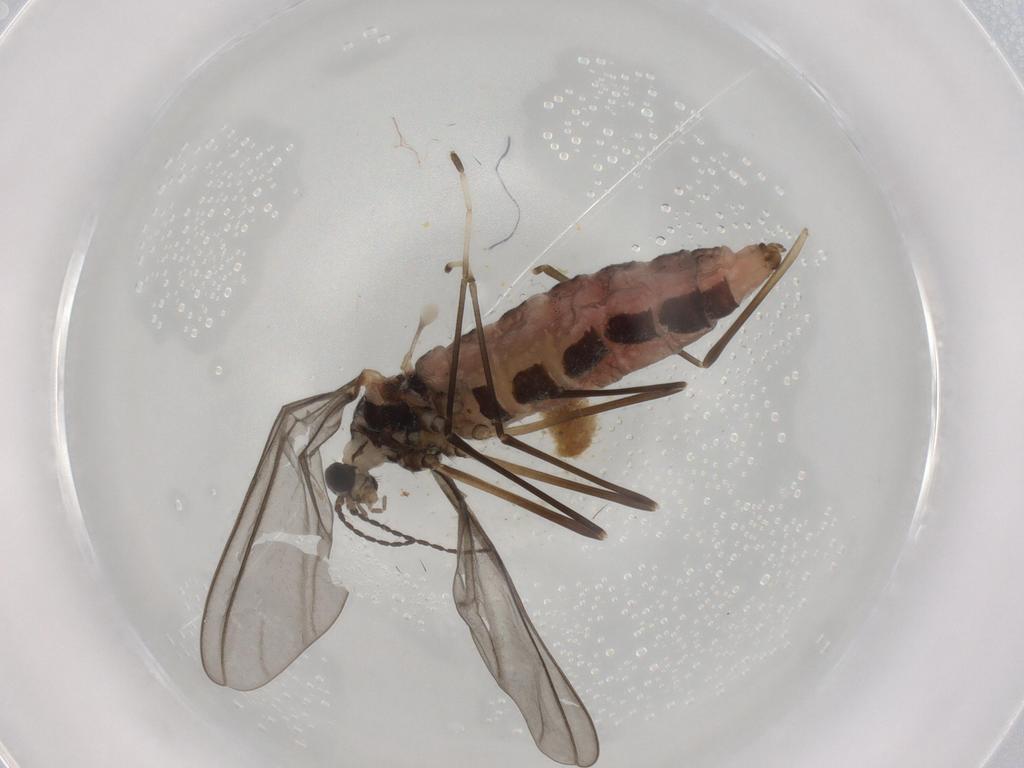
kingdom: Animalia
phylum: Arthropoda
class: Insecta
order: Diptera
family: Cecidomyiidae
